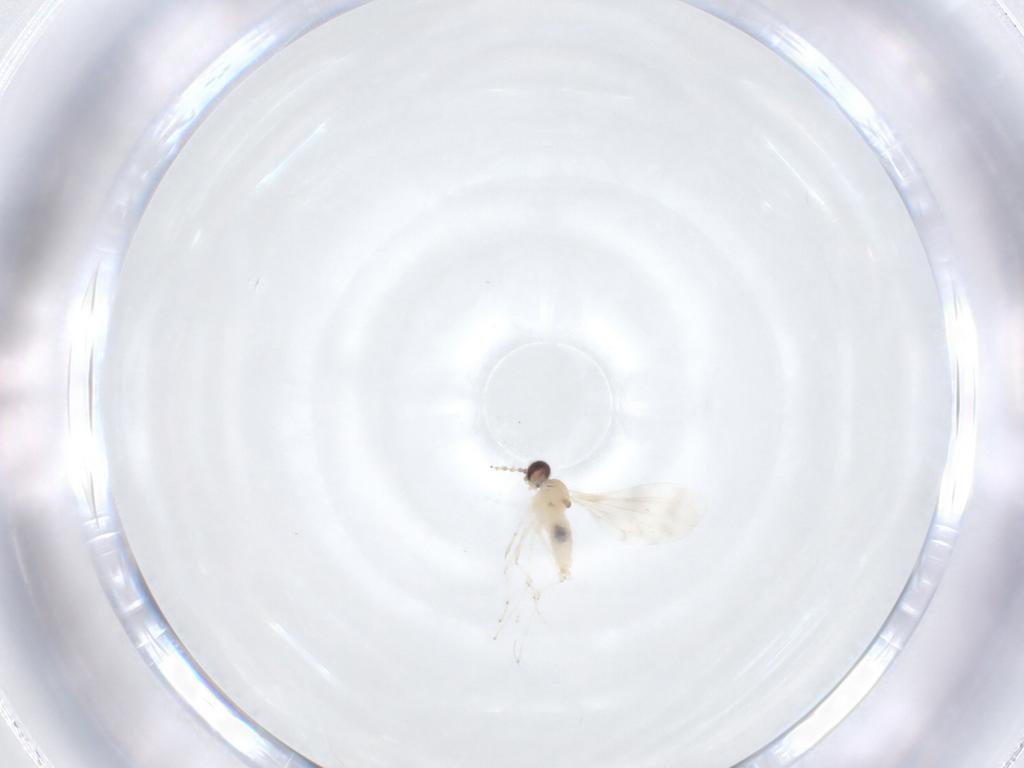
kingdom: Animalia
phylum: Arthropoda
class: Insecta
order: Diptera
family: Cecidomyiidae
